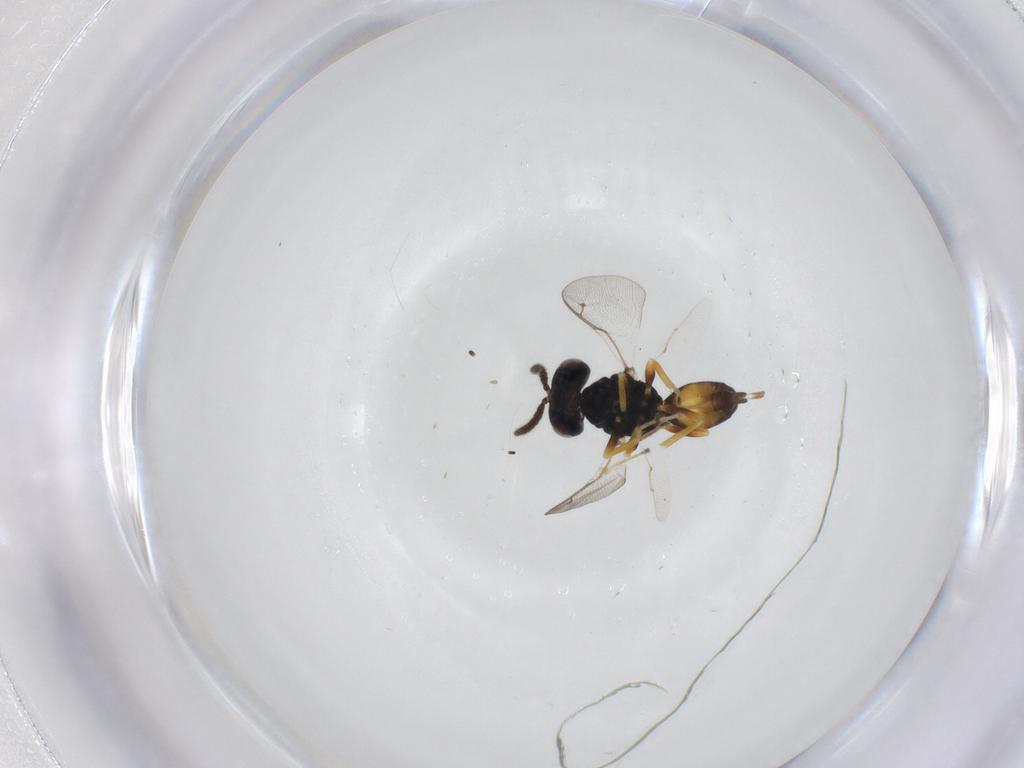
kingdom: Animalia
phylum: Arthropoda
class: Insecta
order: Hymenoptera
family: Pteromalidae
